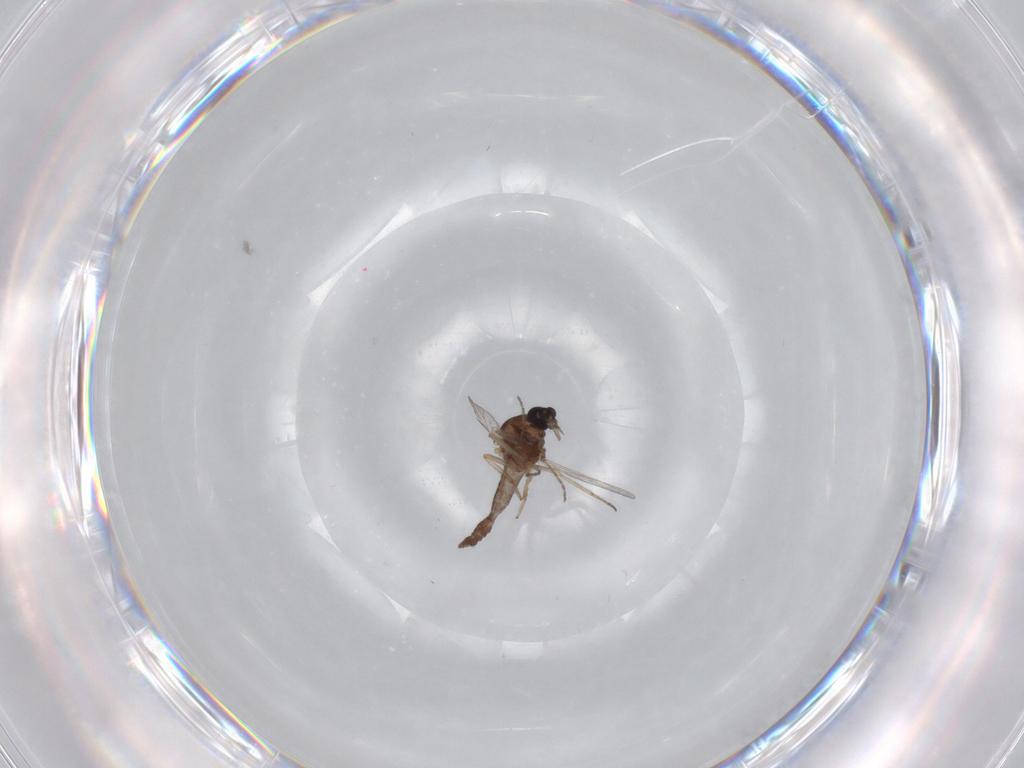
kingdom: Animalia
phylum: Arthropoda
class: Insecta
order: Diptera
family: Ceratopogonidae
